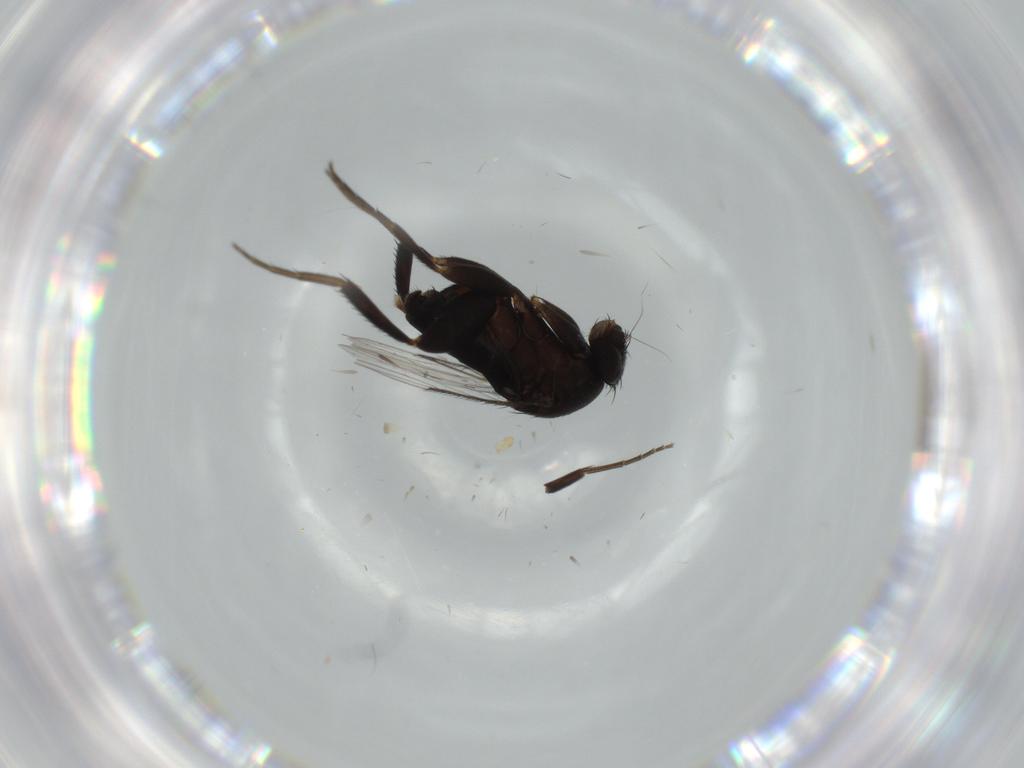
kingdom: Animalia
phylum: Arthropoda
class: Insecta
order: Diptera
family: Phoridae
